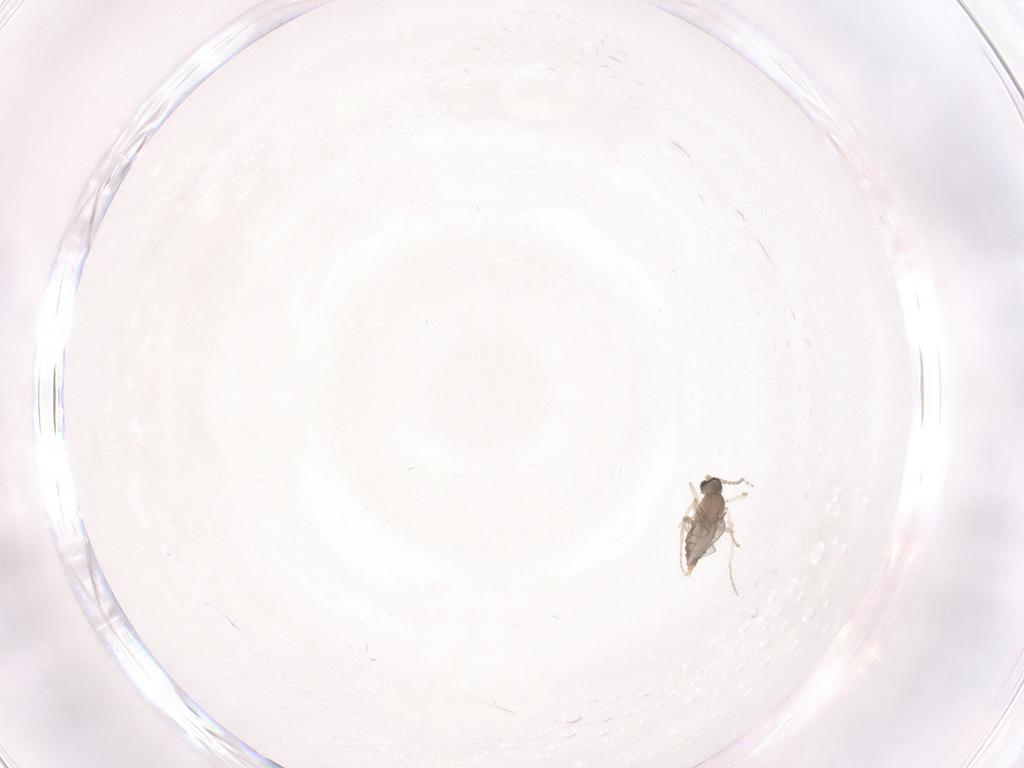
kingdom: Animalia
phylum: Arthropoda
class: Insecta
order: Diptera
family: Cecidomyiidae
